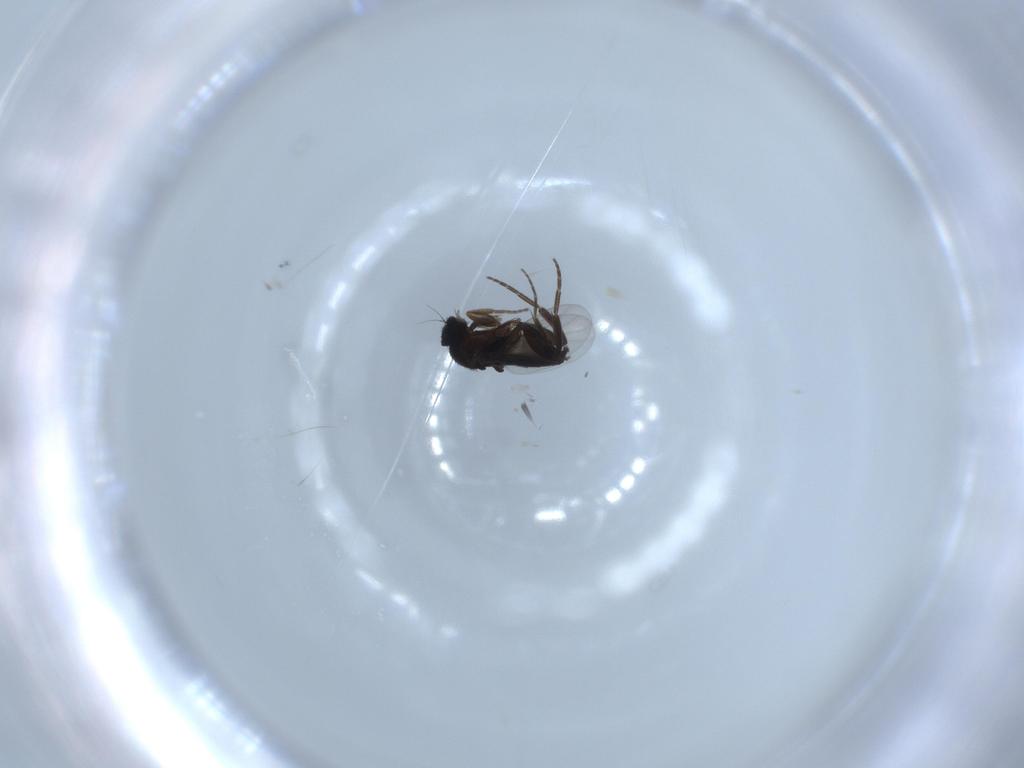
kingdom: Animalia
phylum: Arthropoda
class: Insecta
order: Diptera
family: Phoridae
